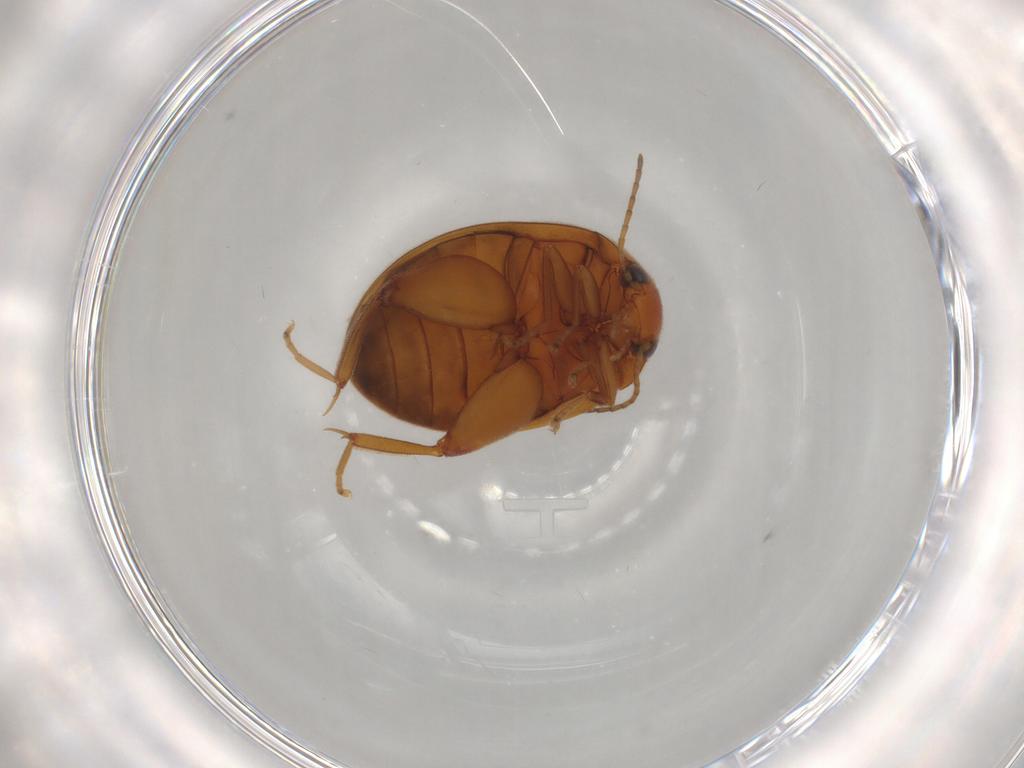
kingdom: Animalia
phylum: Arthropoda
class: Insecta
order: Coleoptera
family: Scirtidae
